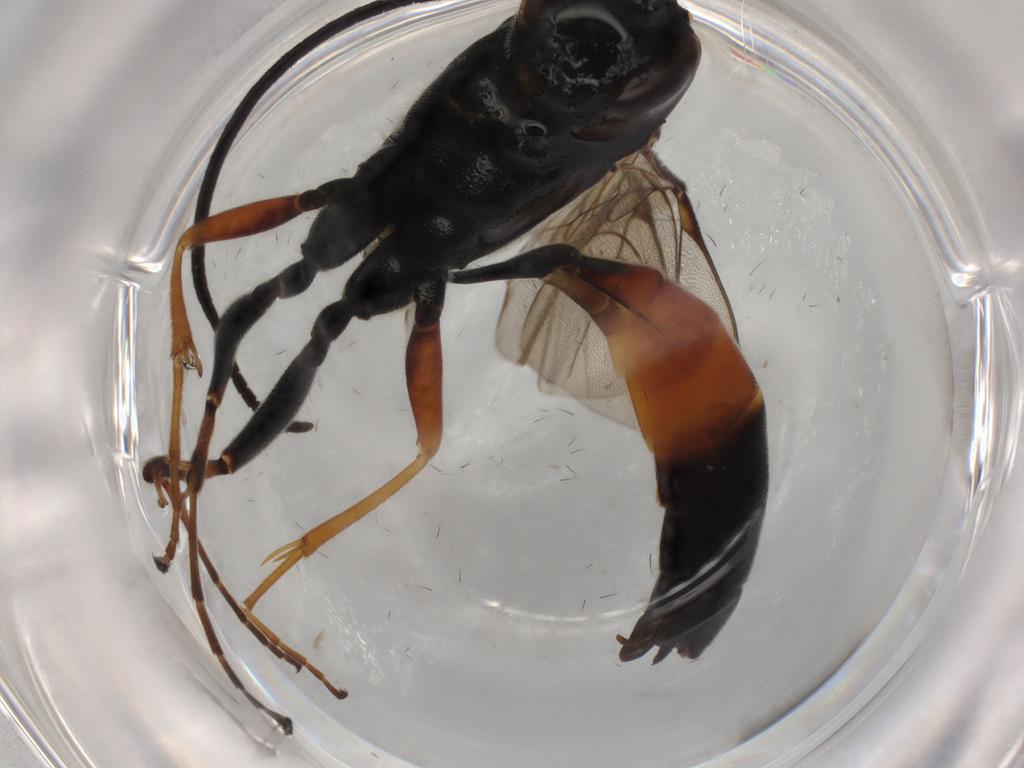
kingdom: Animalia
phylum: Arthropoda
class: Insecta
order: Hymenoptera
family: Ichneumonidae
